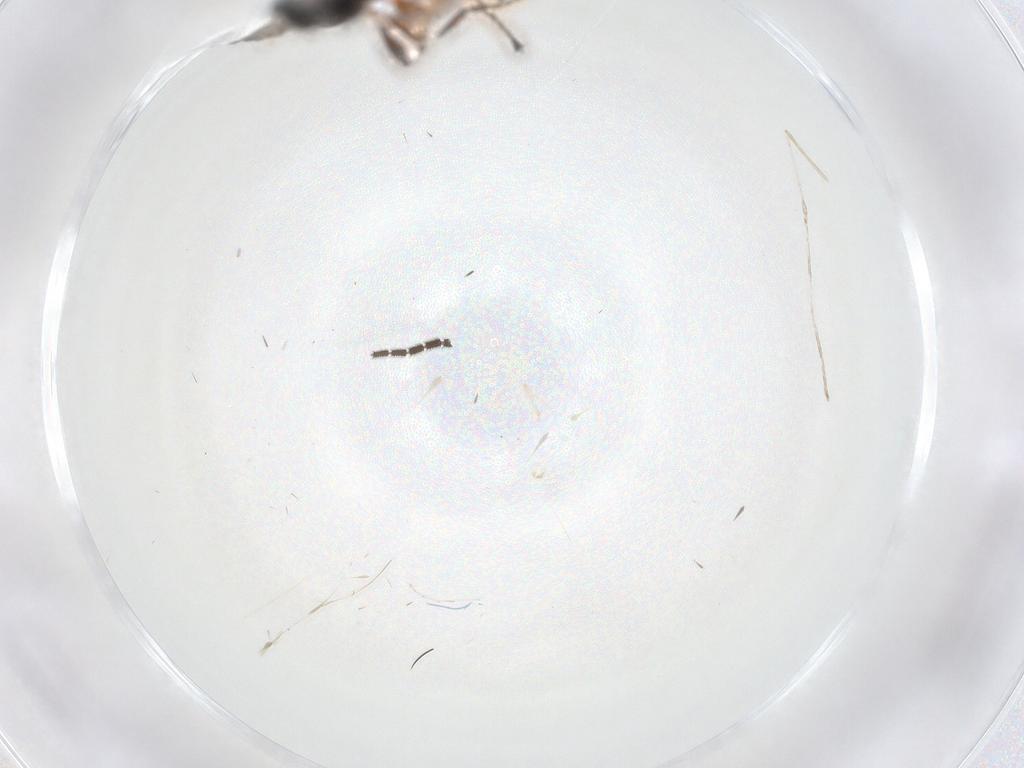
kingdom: Animalia
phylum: Arthropoda
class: Insecta
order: Diptera
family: Sciaridae
